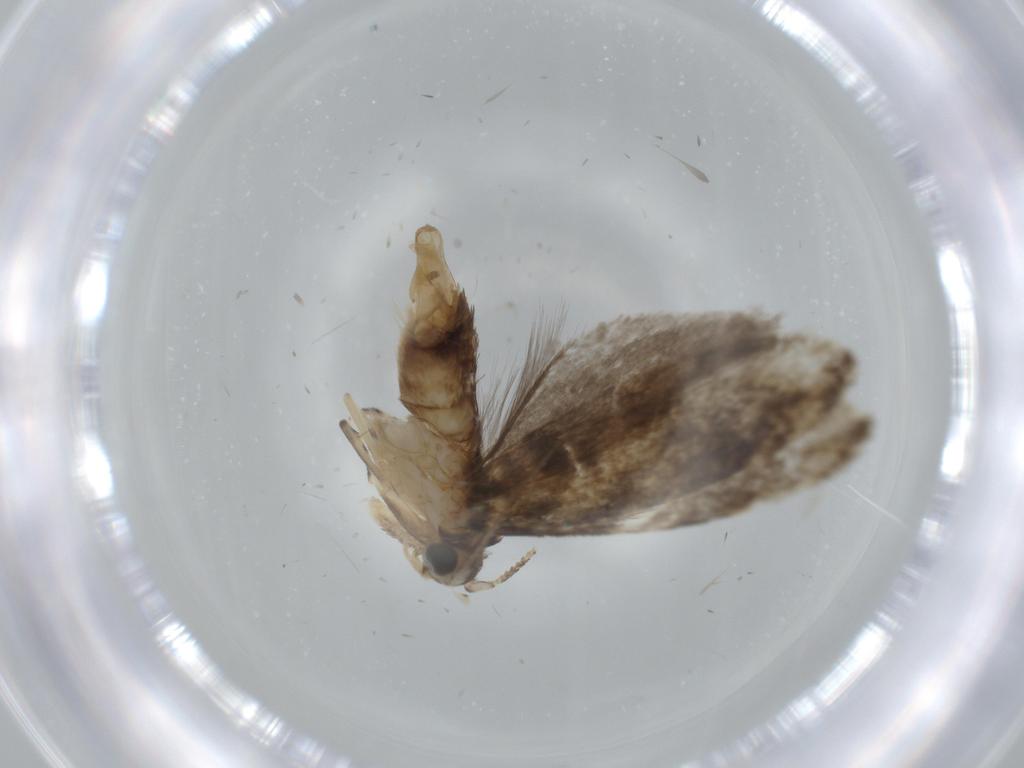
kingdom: Animalia
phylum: Arthropoda
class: Insecta
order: Lepidoptera
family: Tineidae
